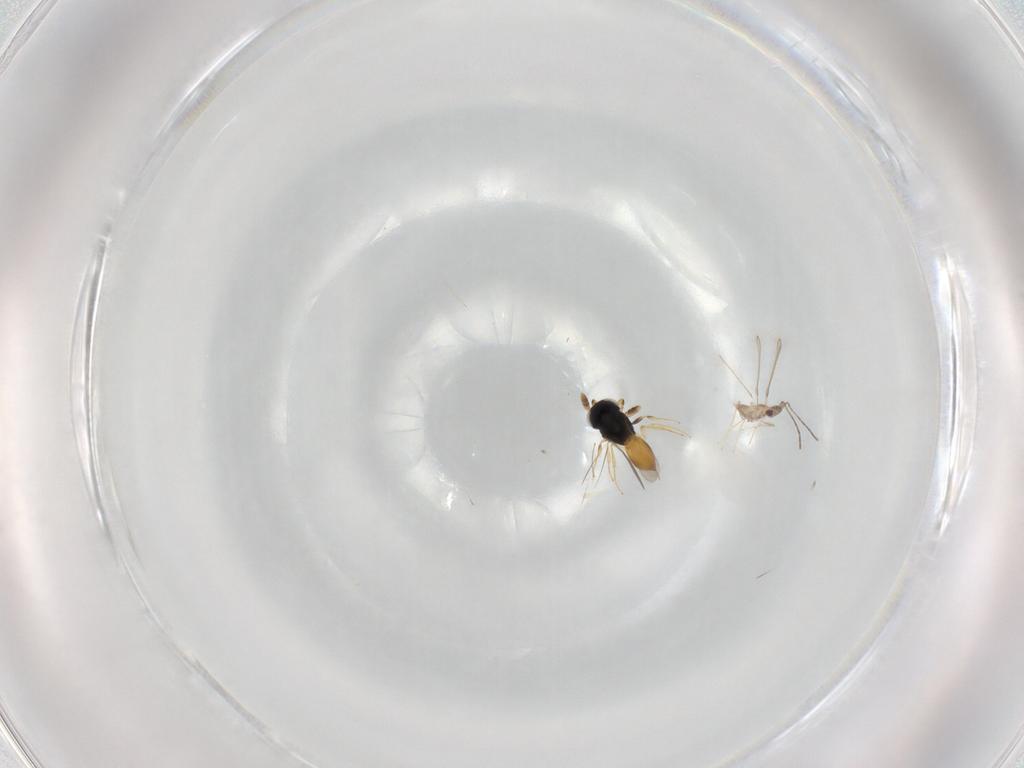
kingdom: Animalia
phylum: Arthropoda
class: Insecta
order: Hymenoptera
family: Scelionidae
